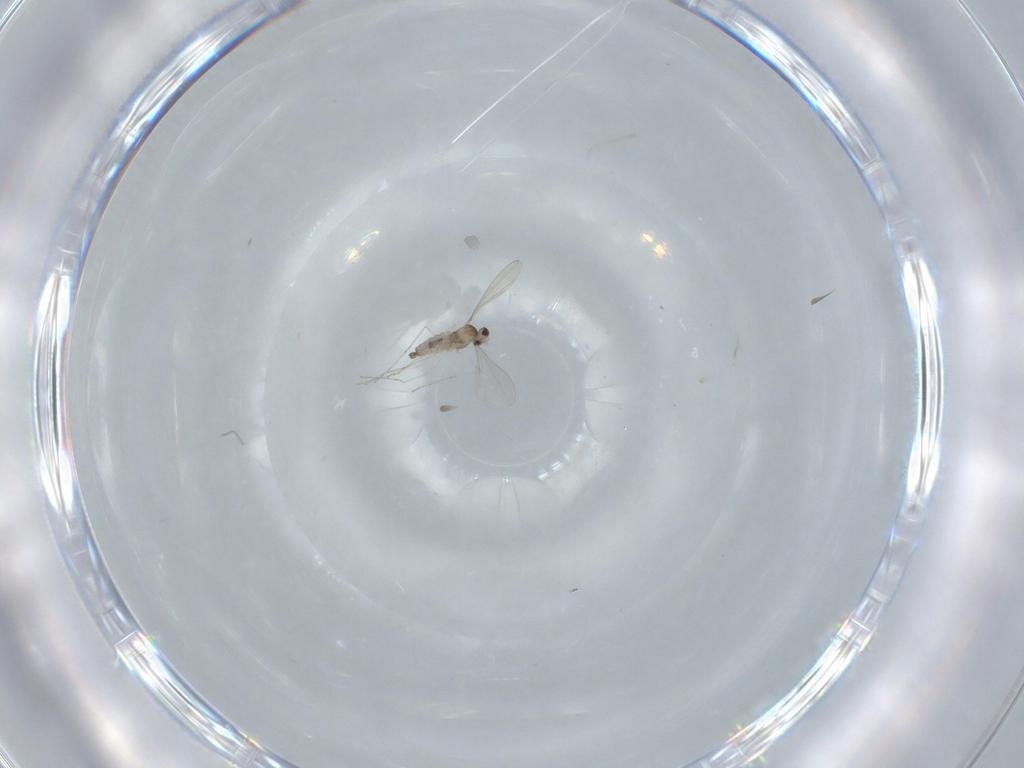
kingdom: Animalia
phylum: Arthropoda
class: Insecta
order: Diptera
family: Cecidomyiidae
